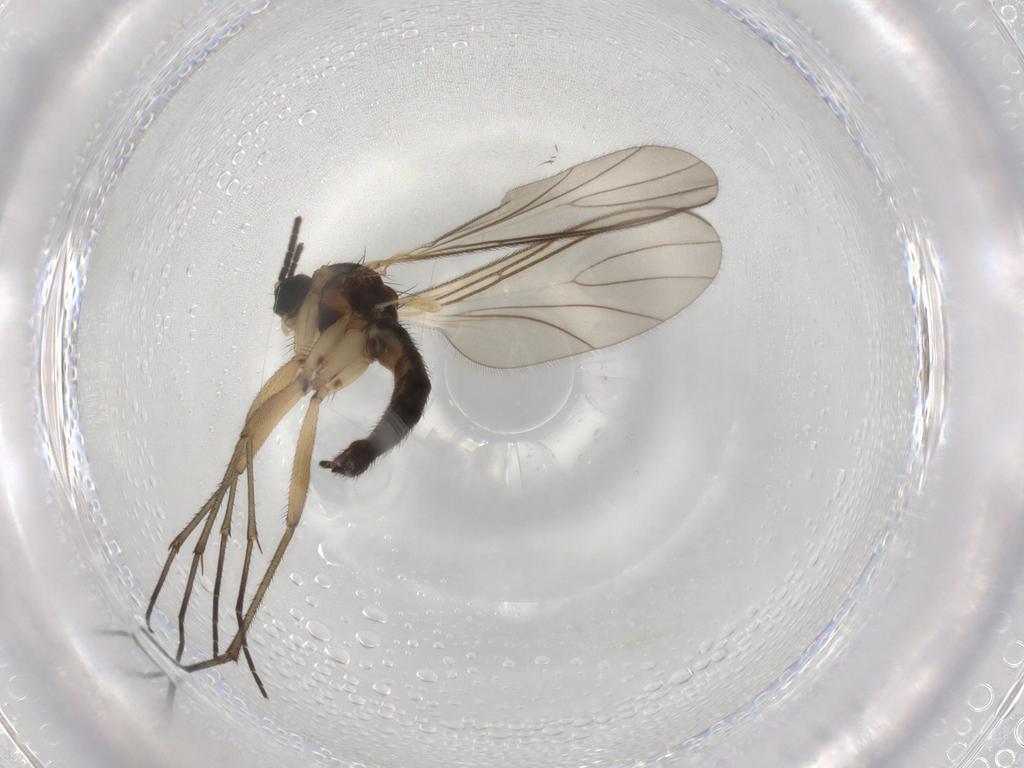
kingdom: Animalia
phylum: Arthropoda
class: Insecta
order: Diptera
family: Sciaridae
